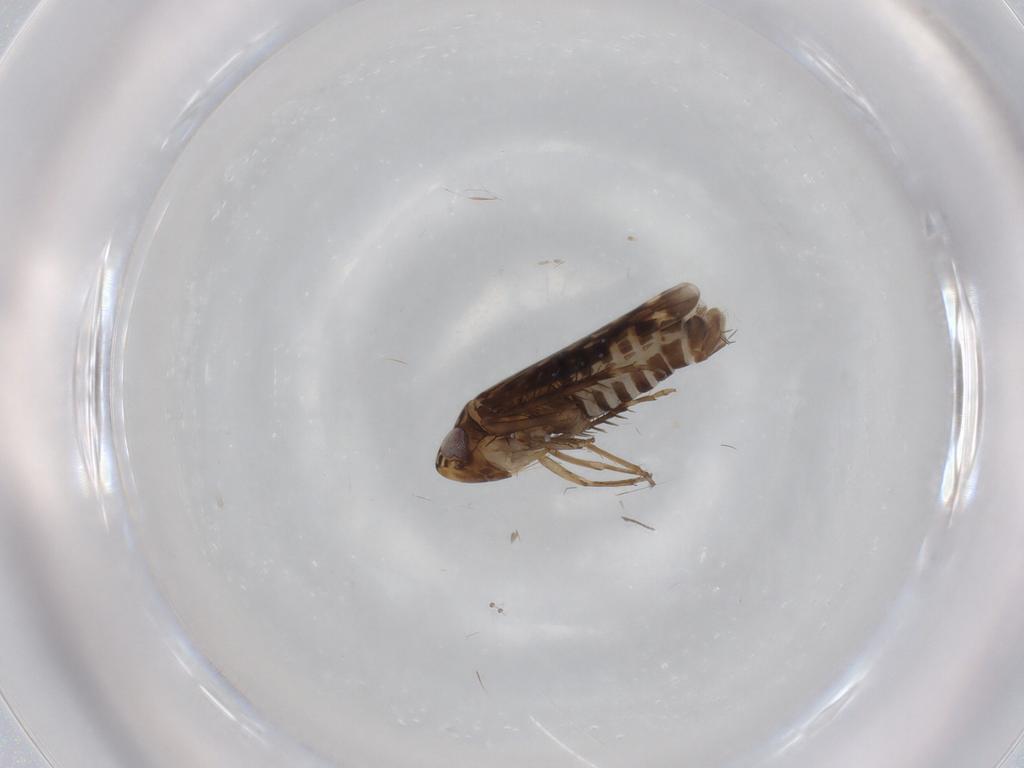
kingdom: Animalia
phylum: Arthropoda
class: Insecta
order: Hemiptera
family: Cicadellidae
